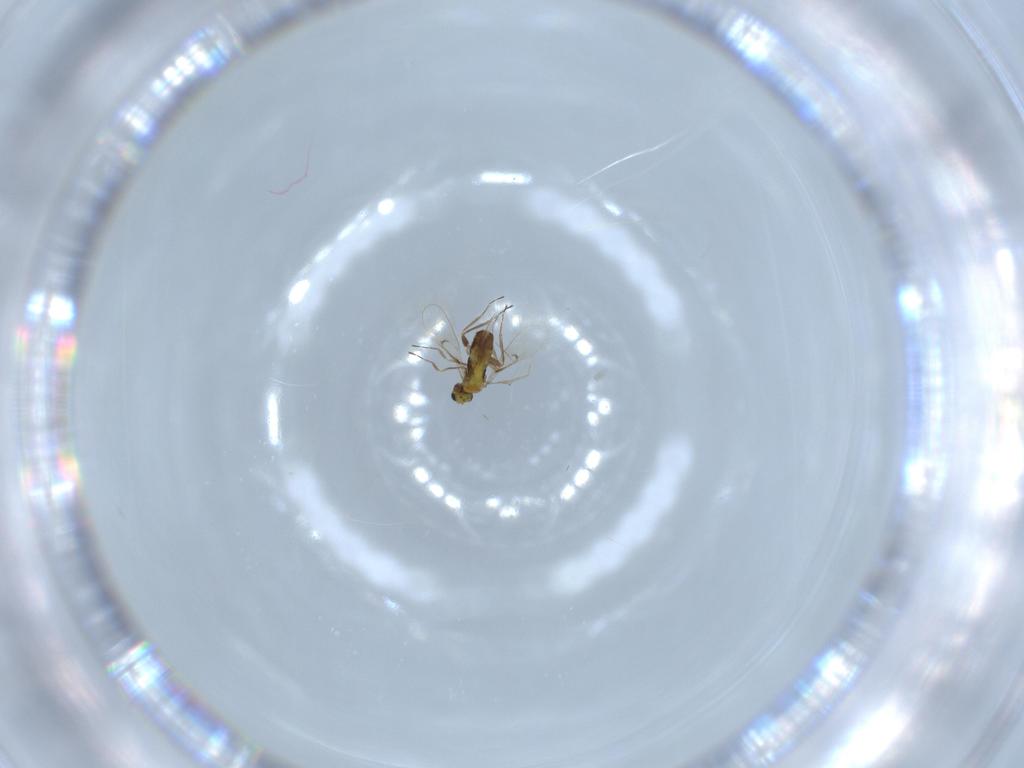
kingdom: Animalia
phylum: Arthropoda
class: Insecta
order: Hymenoptera
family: Trichogrammatidae
